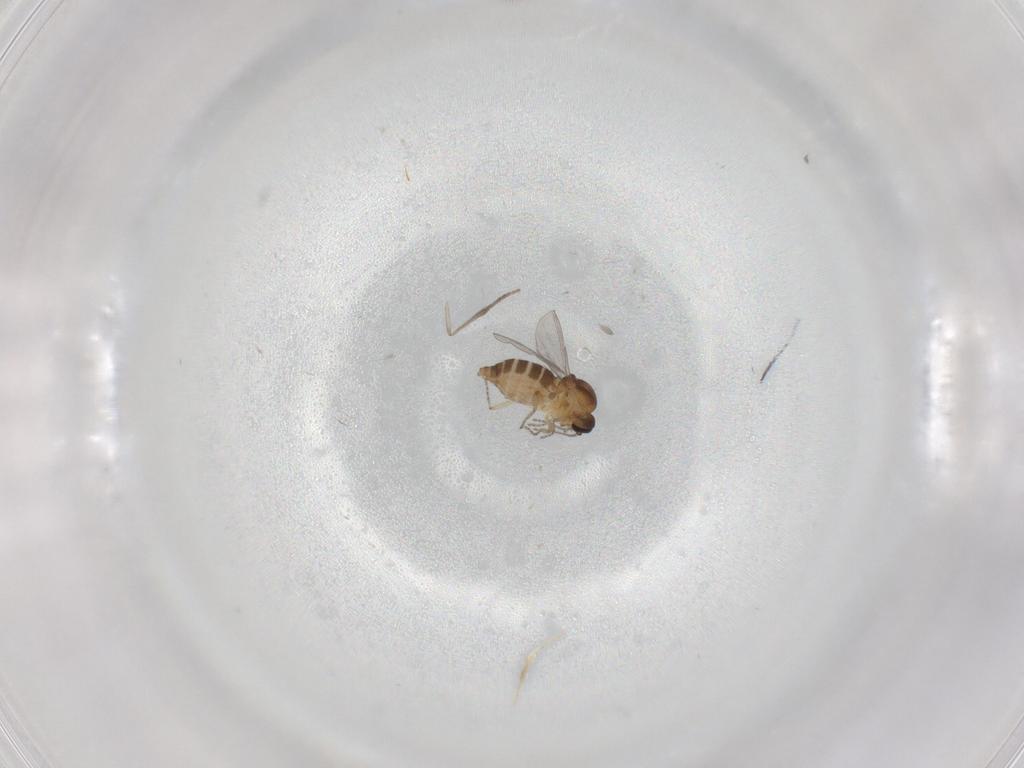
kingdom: Animalia
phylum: Arthropoda
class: Insecta
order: Diptera
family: Ceratopogonidae
